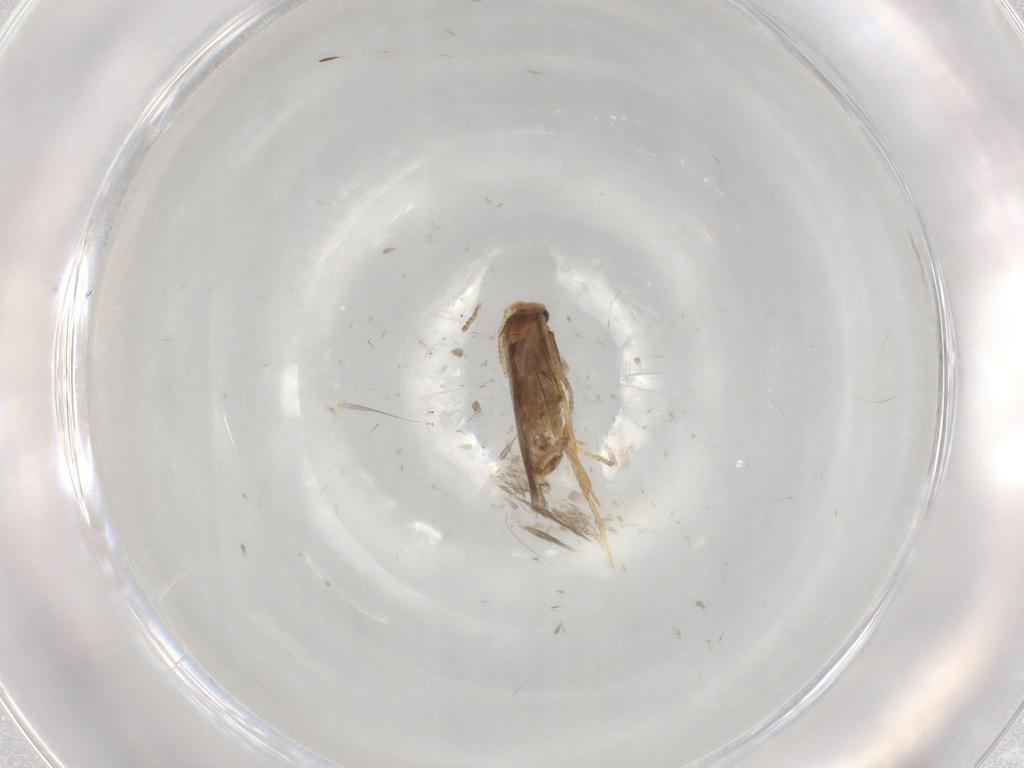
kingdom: Animalia
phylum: Arthropoda
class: Insecta
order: Lepidoptera
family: Nepticulidae
